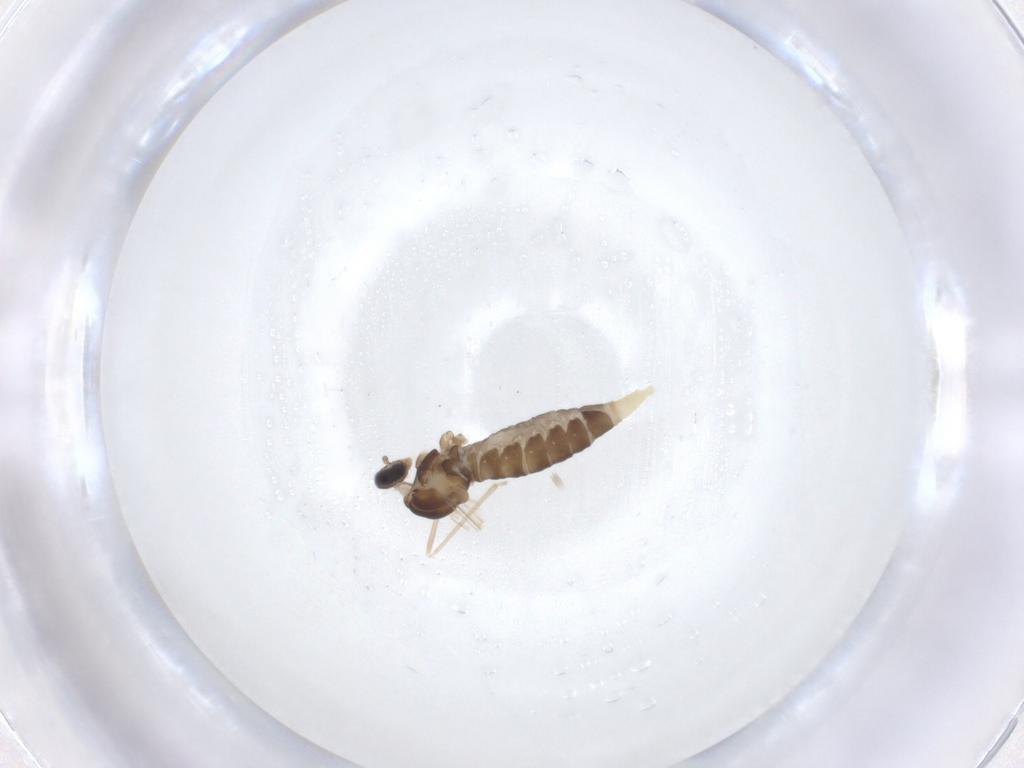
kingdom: Animalia
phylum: Arthropoda
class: Insecta
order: Diptera
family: Cecidomyiidae
